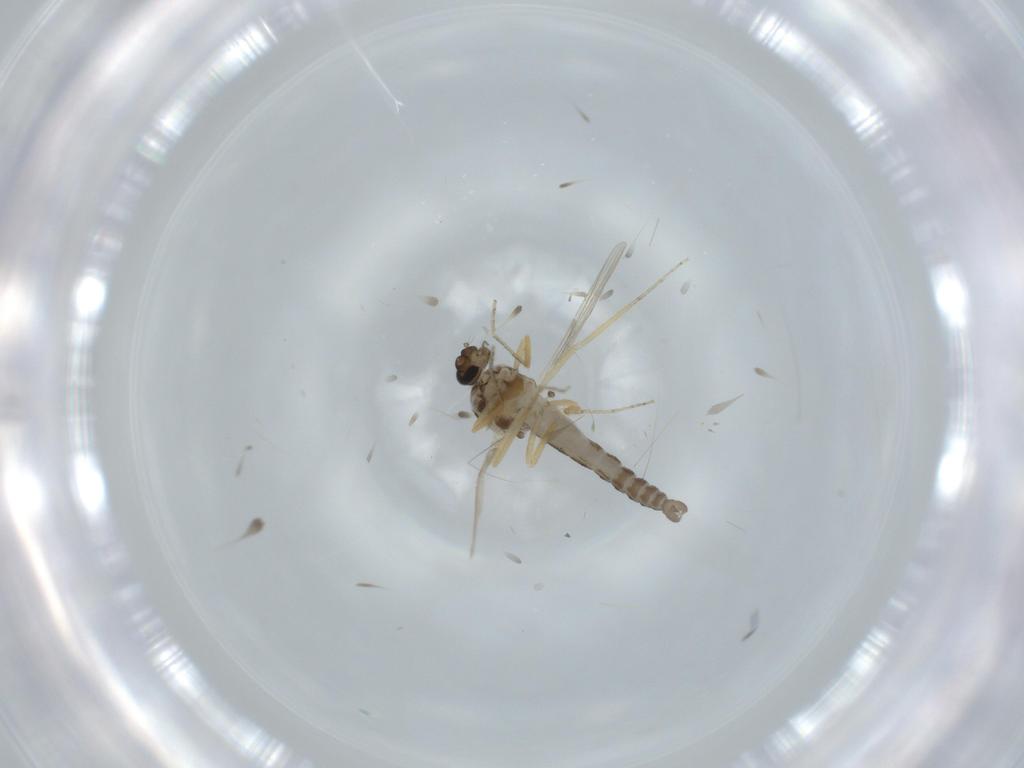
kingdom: Animalia
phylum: Arthropoda
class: Insecta
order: Diptera
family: Ceratopogonidae
